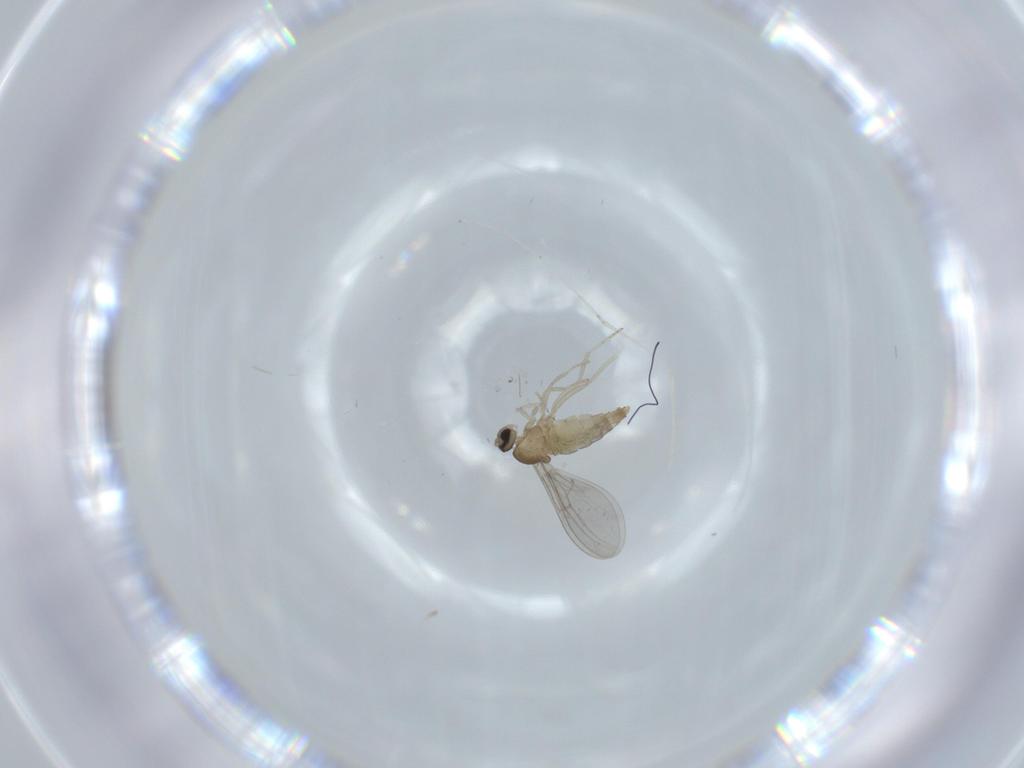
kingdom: Animalia
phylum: Arthropoda
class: Insecta
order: Diptera
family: Cecidomyiidae
